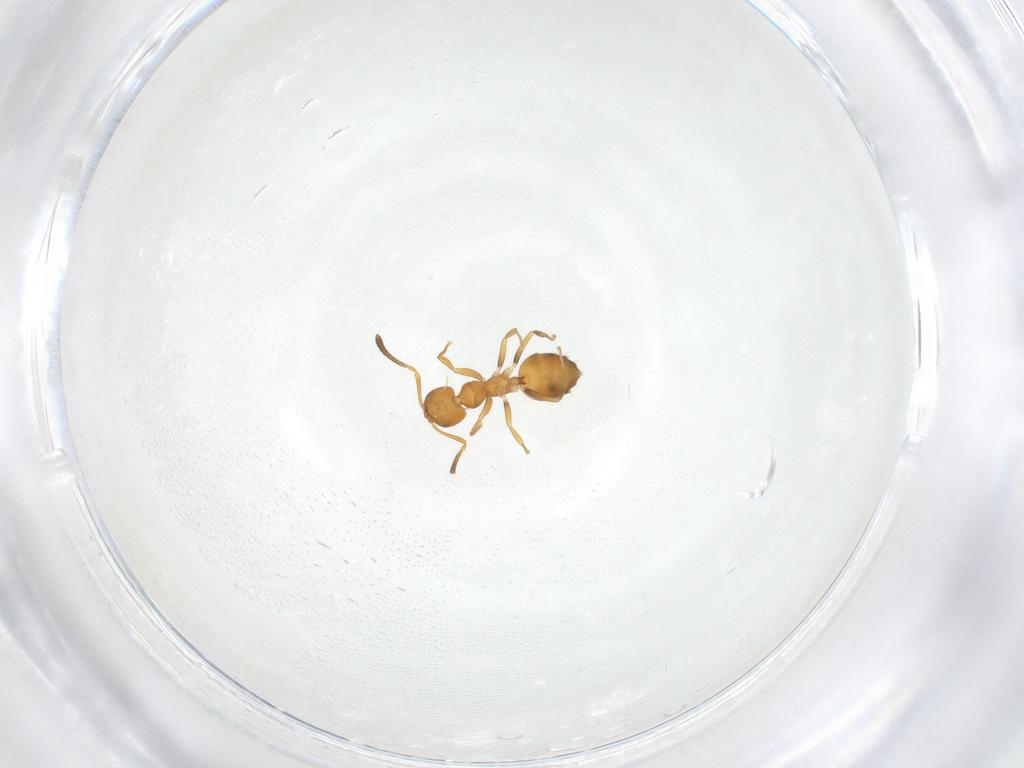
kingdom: Animalia
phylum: Arthropoda
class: Insecta
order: Hymenoptera
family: Formicidae
